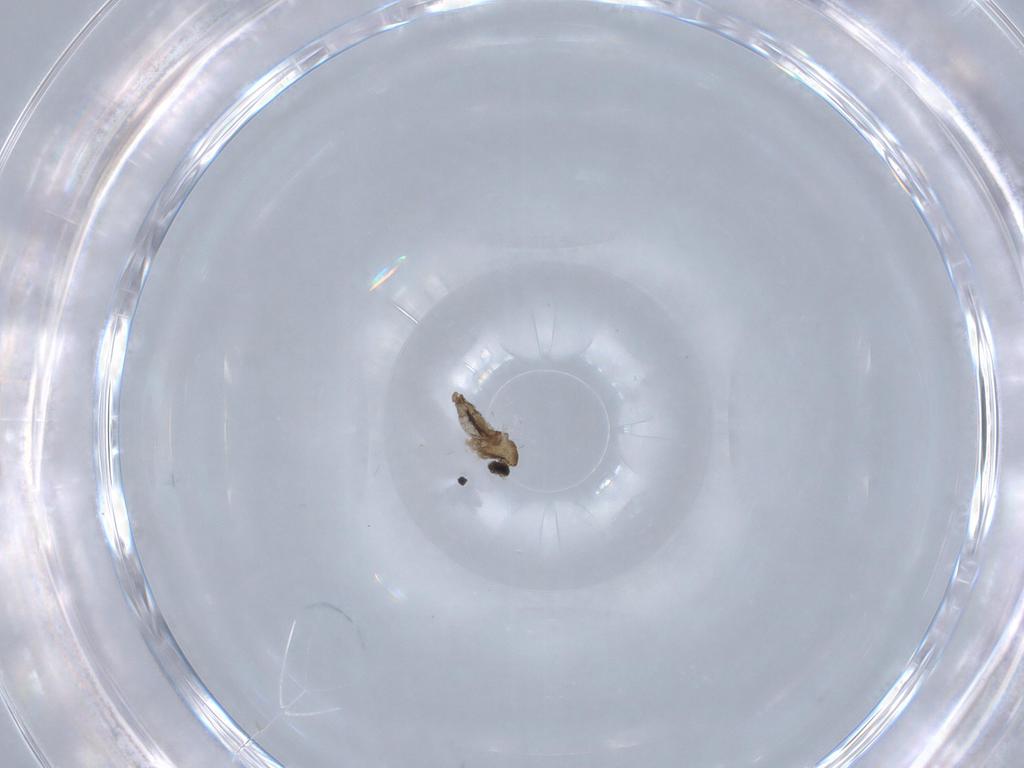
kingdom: Animalia
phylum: Arthropoda
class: Insecta
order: Diptera
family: Cecidomyiidae
